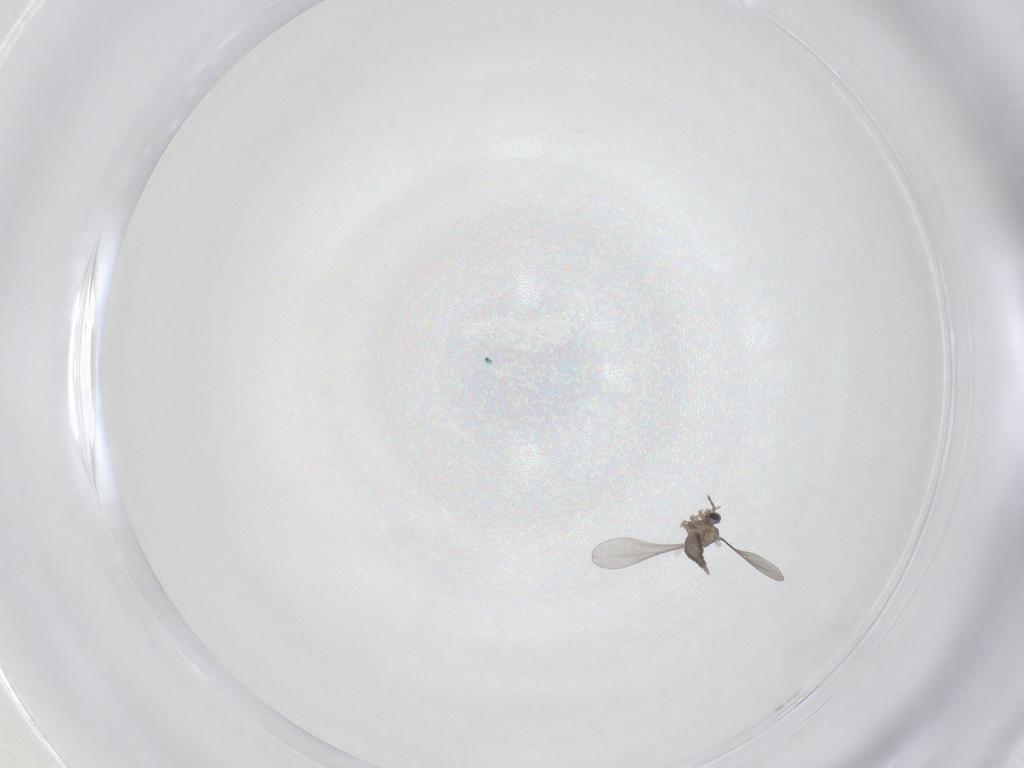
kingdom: Animalia
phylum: Arthropoda
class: Insecta
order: Diptera
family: Cecidomyiidae
